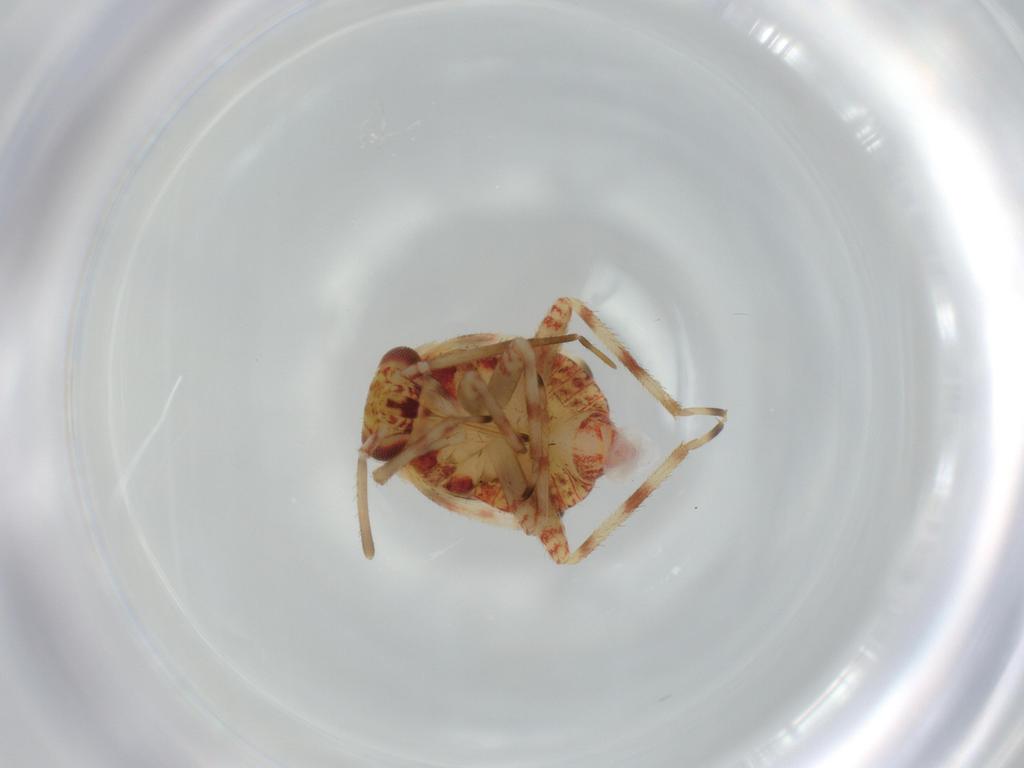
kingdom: Animalia
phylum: Arthropoda
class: Insecta
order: Hemiptera
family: Miridae
